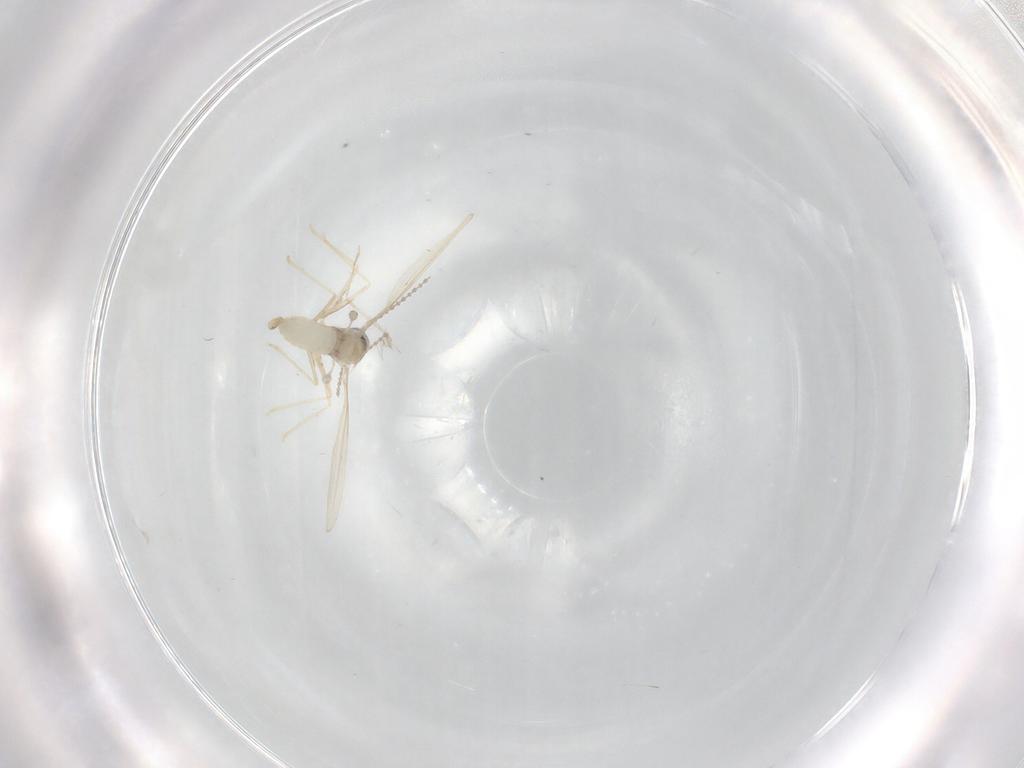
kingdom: Animalia
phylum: Arthropoda
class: Insecta
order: Diptera
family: Cecidomyiidae
